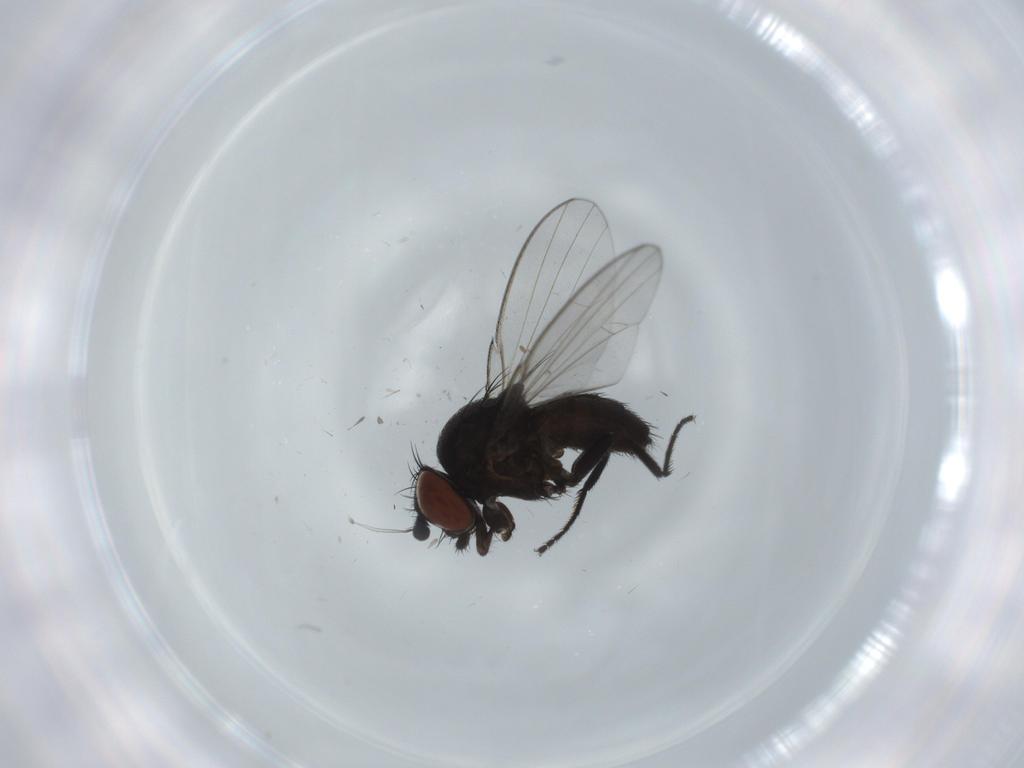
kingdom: Animalia
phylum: Arthropoda
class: Insecta
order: Diptera
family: Milichiidae
